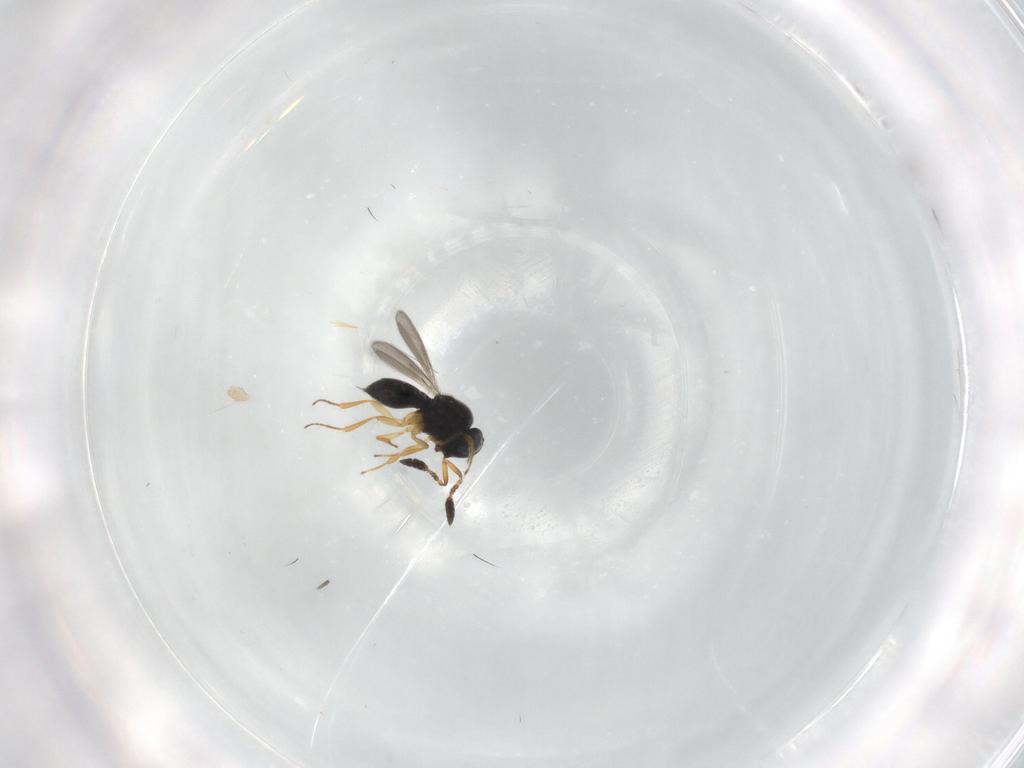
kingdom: Animalia
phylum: Arthropoda
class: Insecta
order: Hymenoptera
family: Scelionidae
